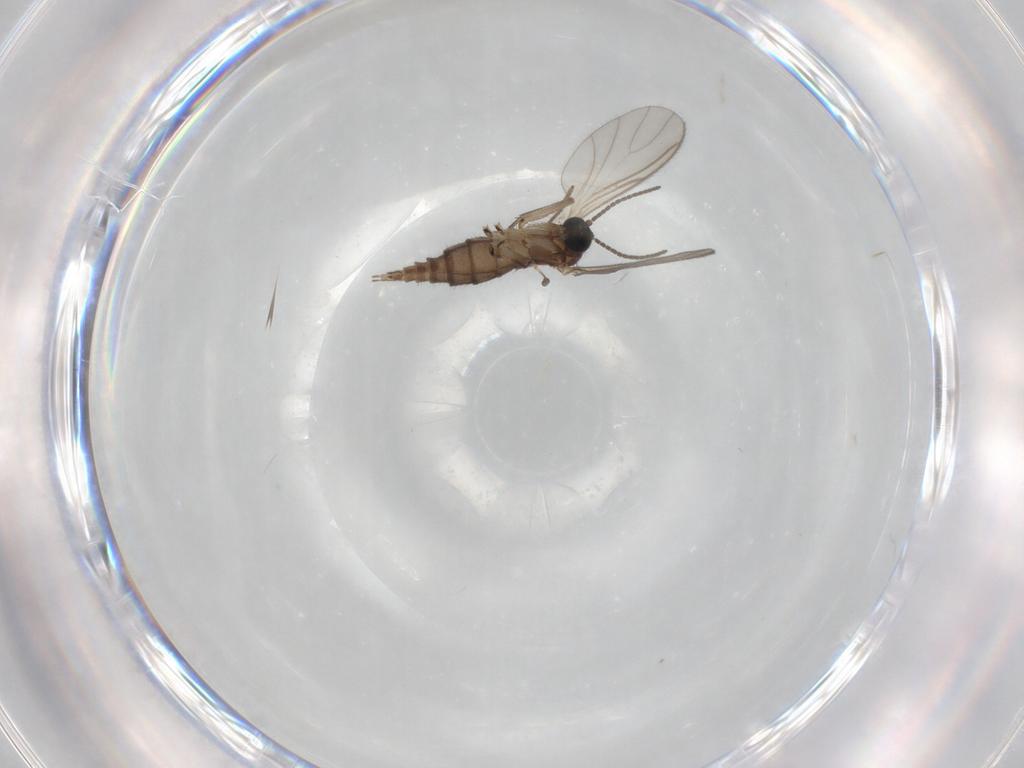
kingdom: Animalia
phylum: Arthropoda
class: Insecta
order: Diptera
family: Sciaridae
